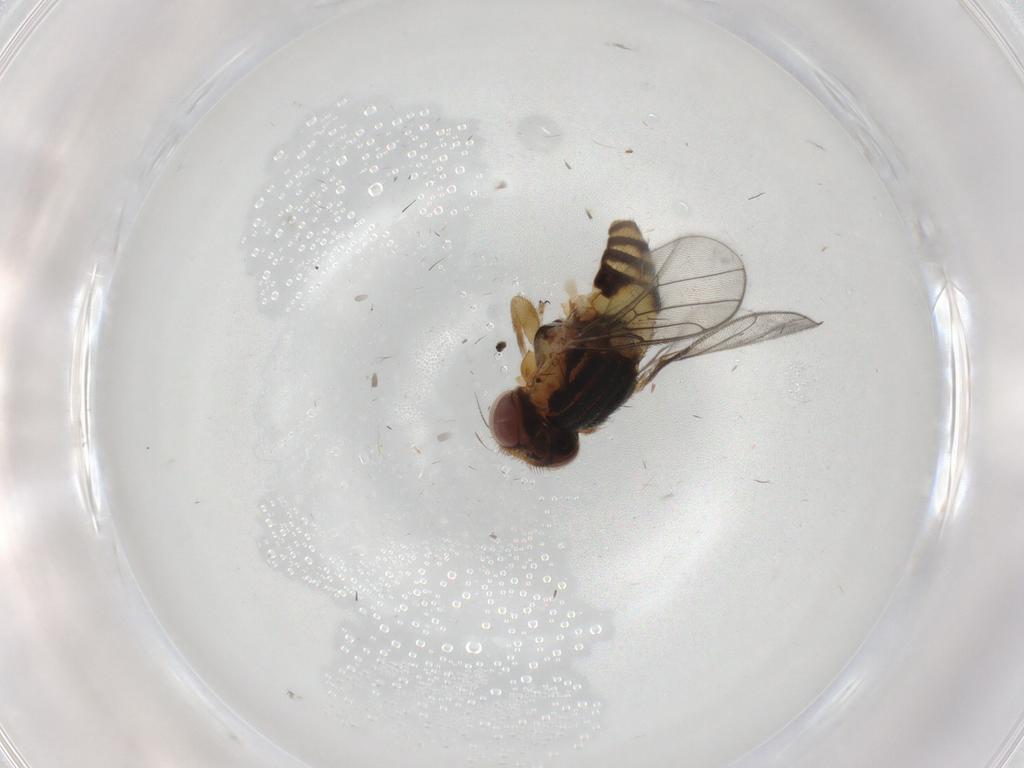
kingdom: Animalia
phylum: Arthropoda
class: Insecta
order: Diptera
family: Chloropidae
